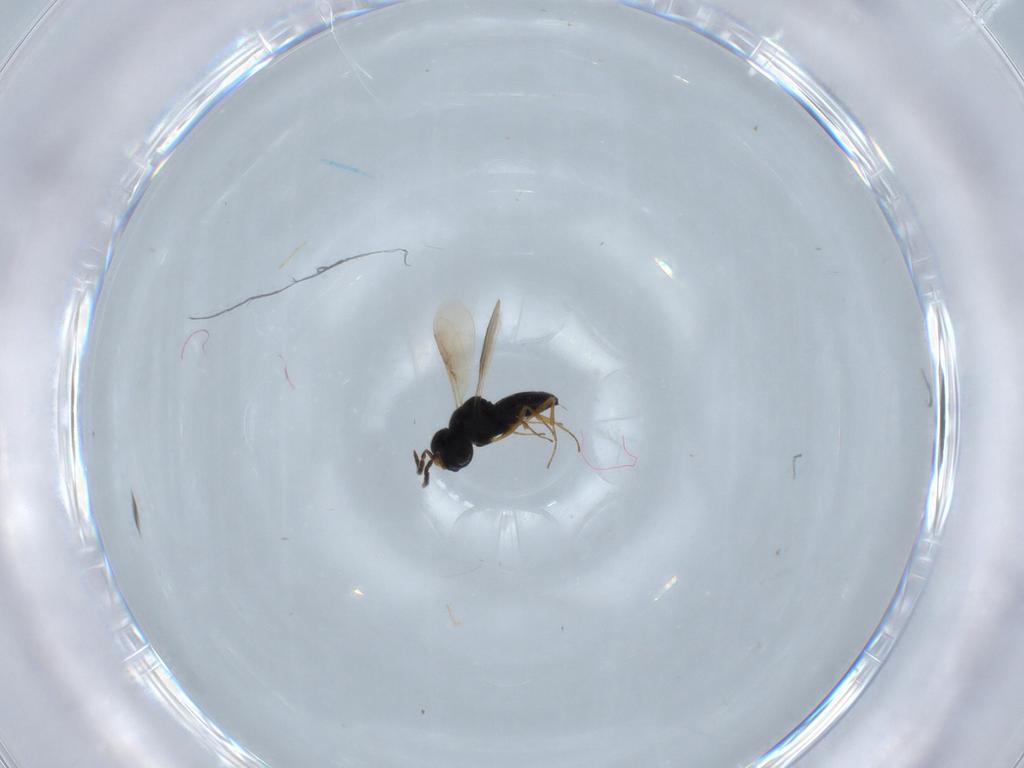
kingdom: Animalia
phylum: Arthropoda
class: Insecta
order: Hymenoptera
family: Scelionidae
